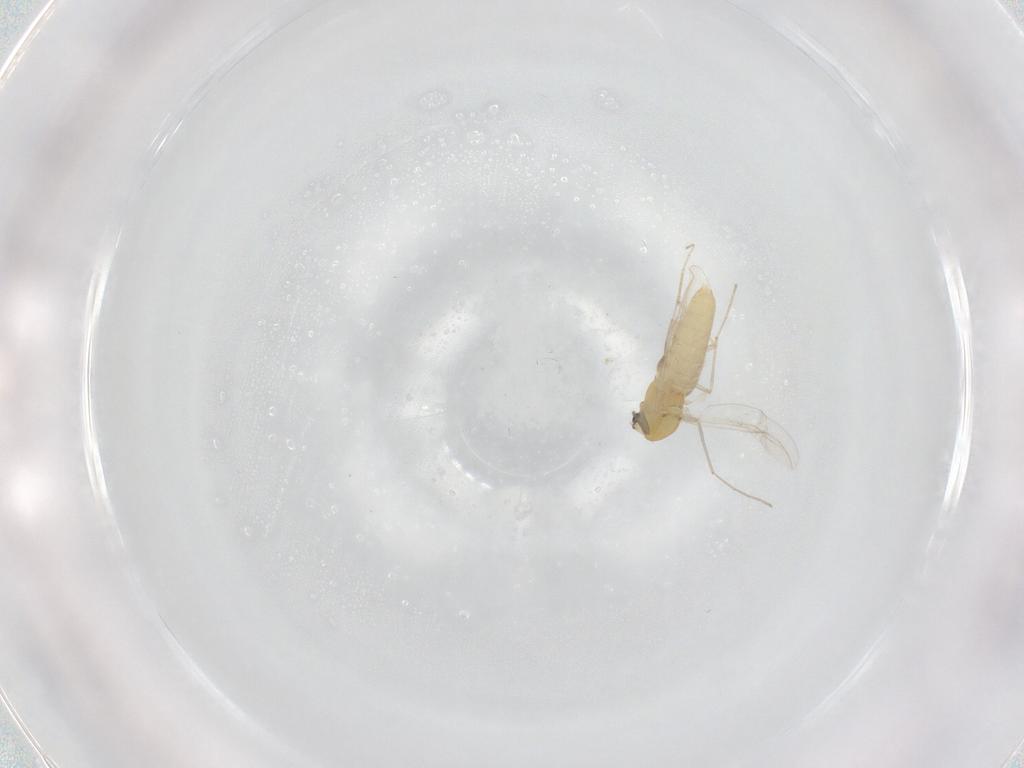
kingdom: Animalia
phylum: Arthropoda
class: Insecta
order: Diptera
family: Chironomidae
